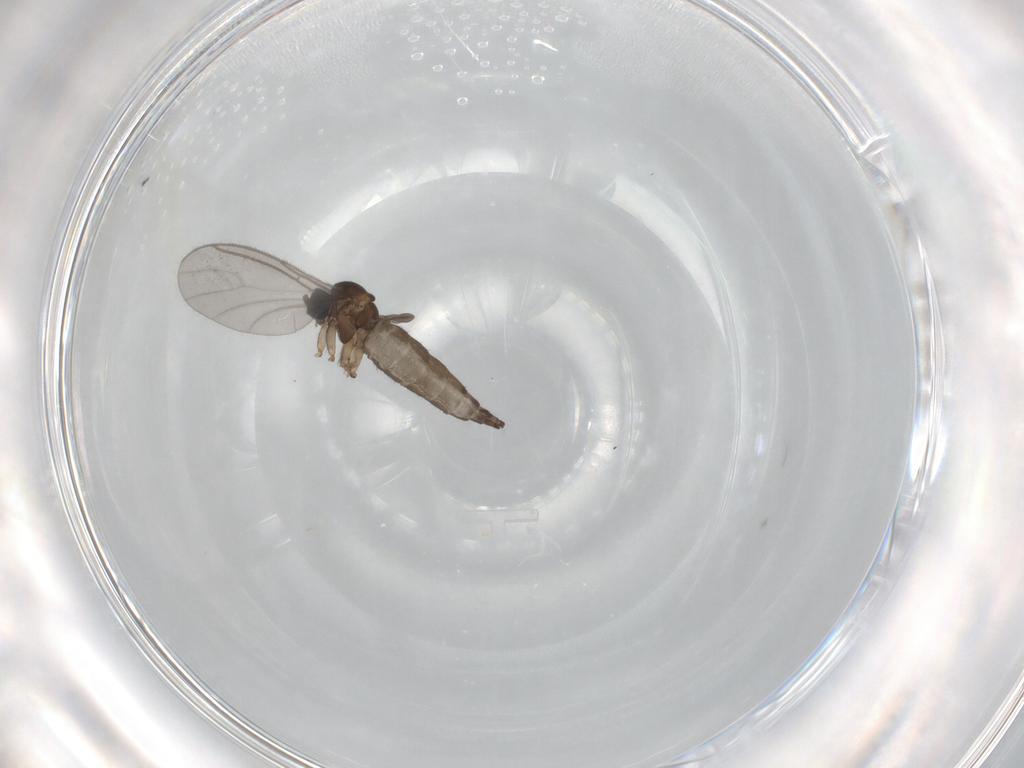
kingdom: Animalia
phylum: Arthropoda
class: Insecta
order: Diptera
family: Sciaridae
